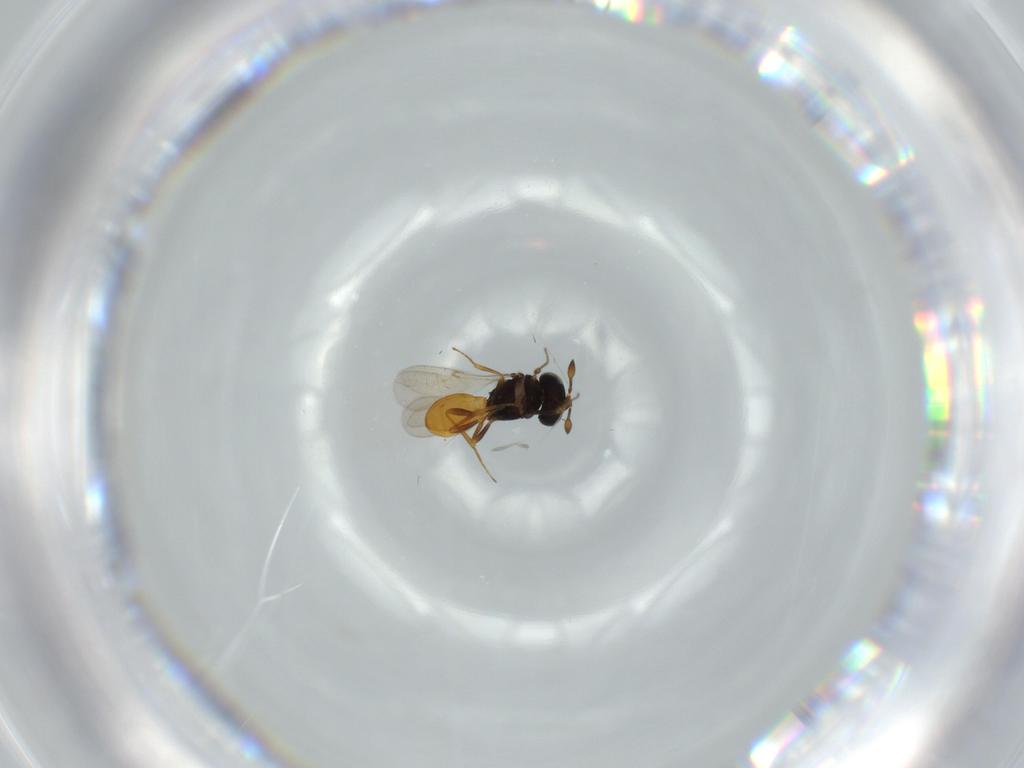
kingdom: Animalia
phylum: Arthropoda
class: Insecta
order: Hymenoptera
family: Scelionidae
